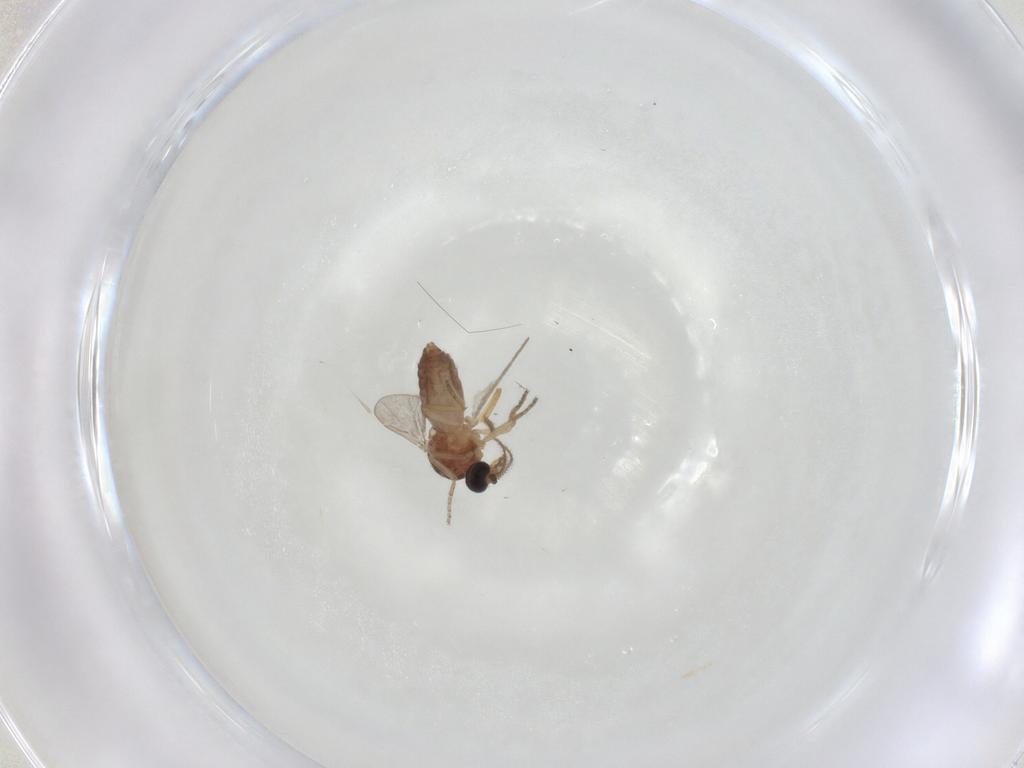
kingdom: Animalia
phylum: Arthropoda
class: Insecta
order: Diptera
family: Ceratopogonidae
